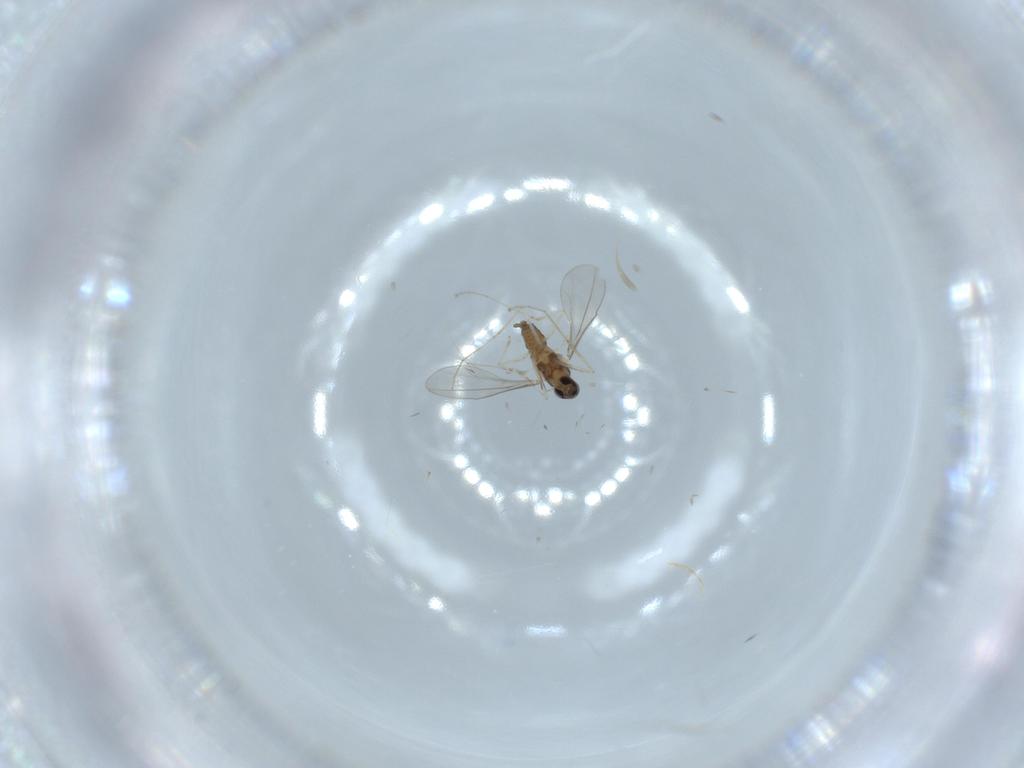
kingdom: Animalia
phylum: Arthropoda
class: Insecta
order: Diptera
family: Cecidomyiidae
